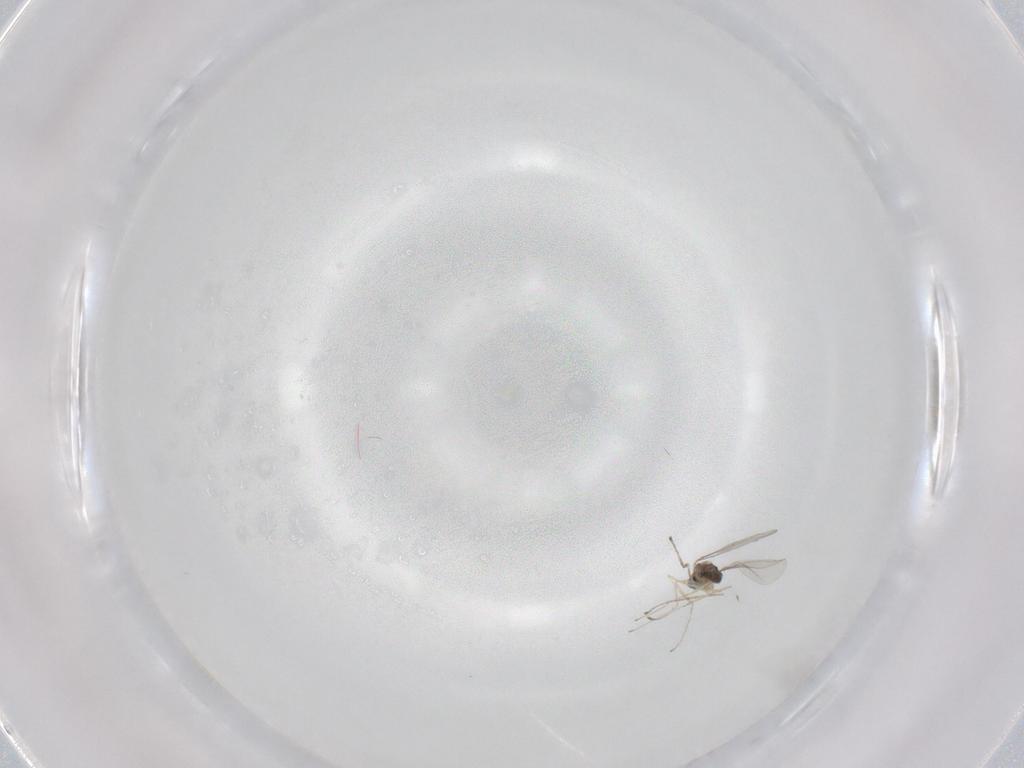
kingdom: Animalia
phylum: Arthropoda
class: Insecta
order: Diptera
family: Cecidomyiidae
